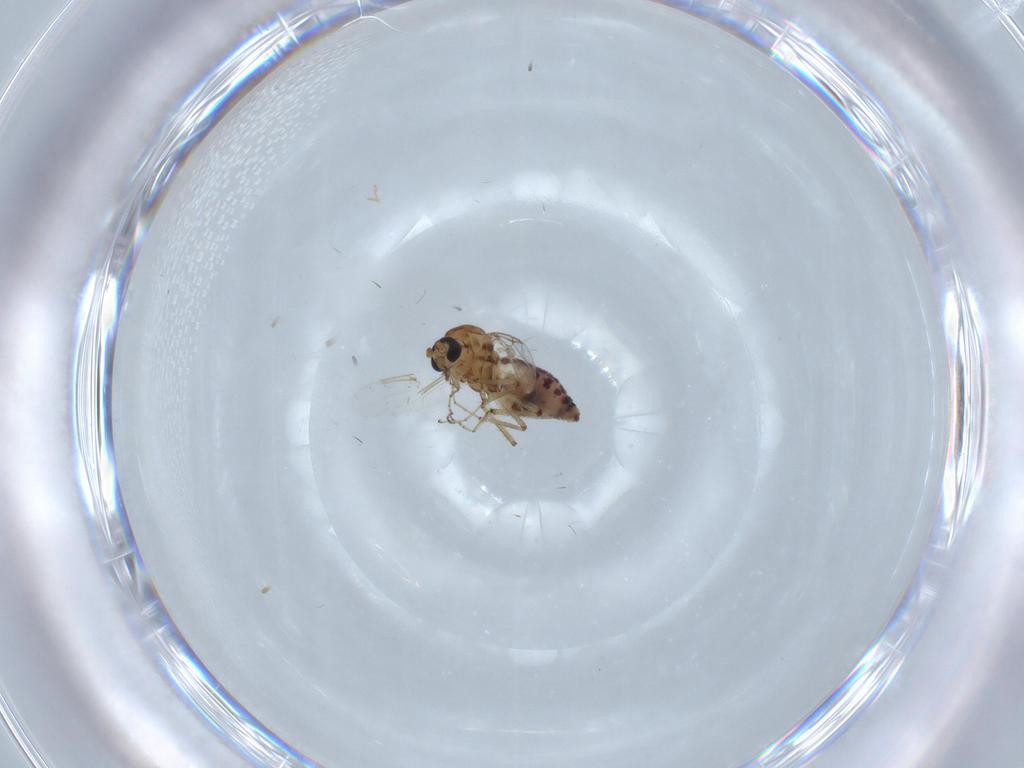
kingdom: Animalia
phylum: Arthropoda
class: Insecta
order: Diptera
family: Ceratopogonidae
